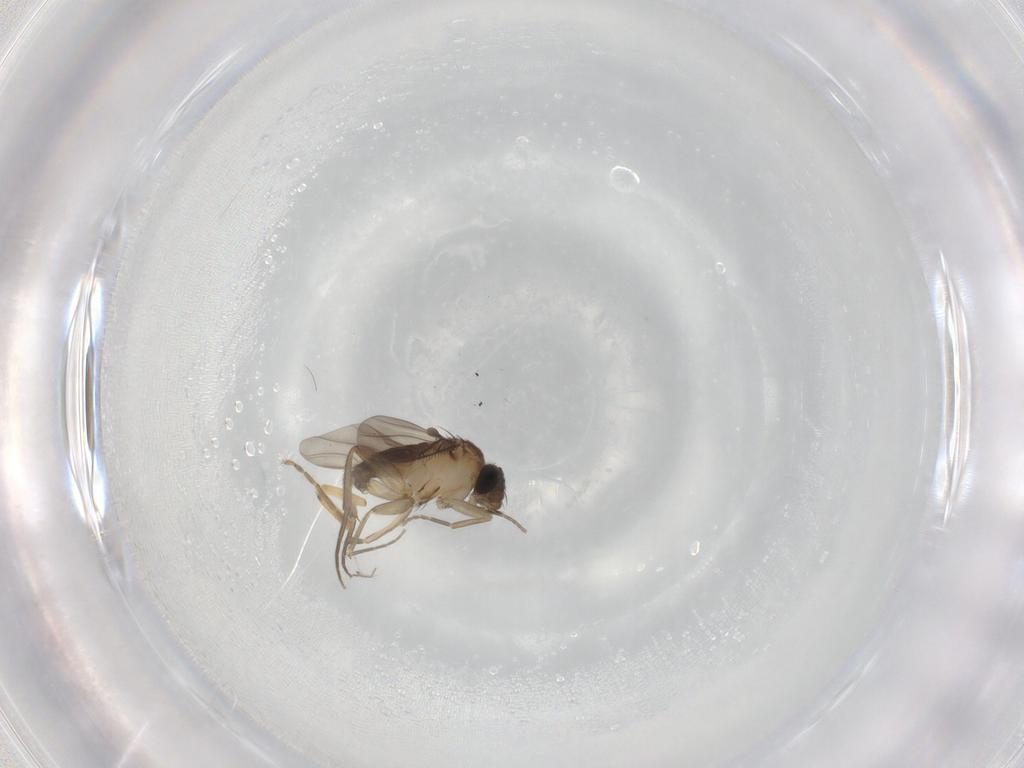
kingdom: Animalia
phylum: Arthropoda
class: Insecta
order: Diptera
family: Phoridae
